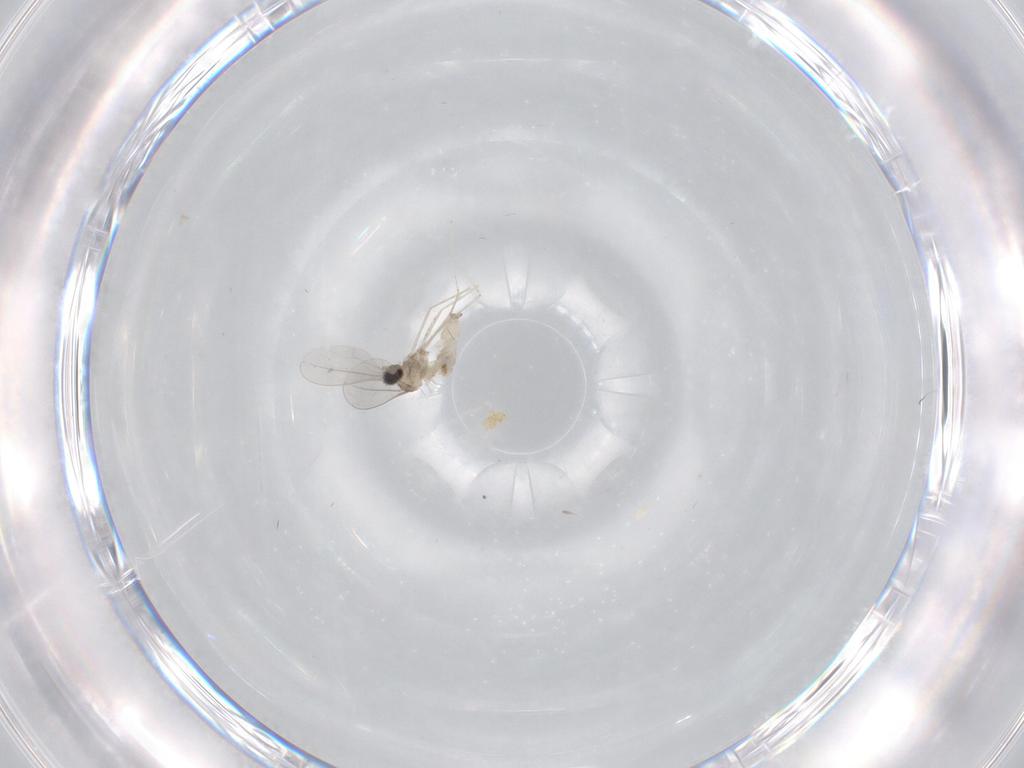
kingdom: Animalia
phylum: Arthropoda
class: Insecta
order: Diptera
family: Cecidomyiidae
